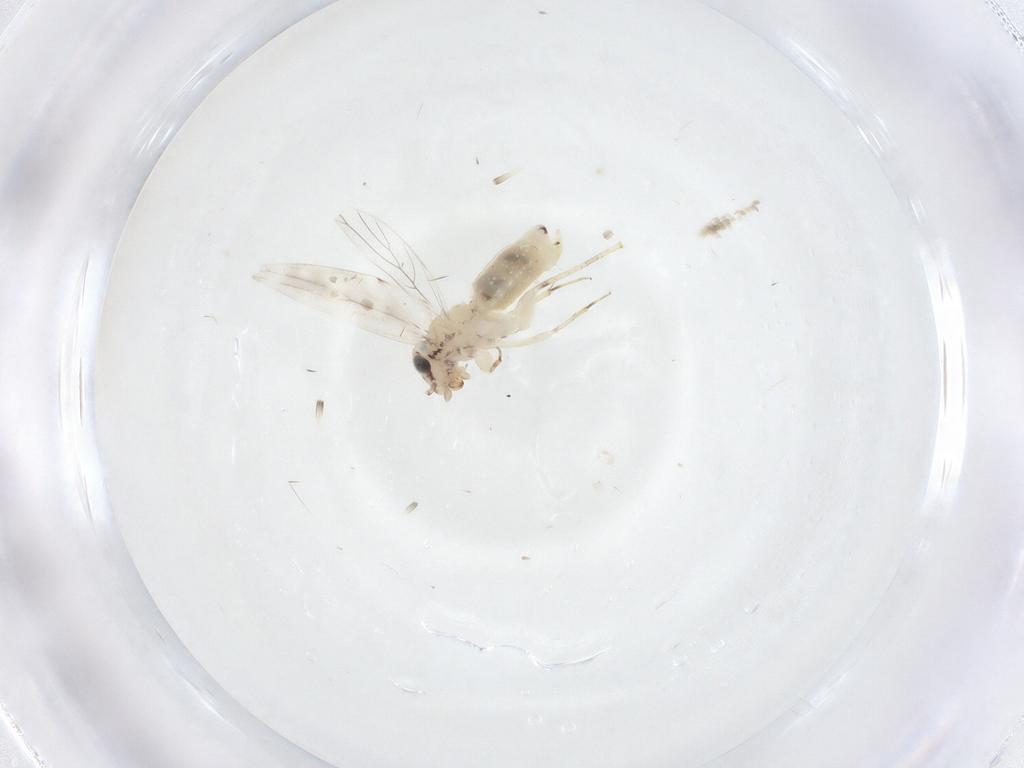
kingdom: Animalia
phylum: Arthropoda
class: Insecta
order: Psocodea
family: Lepidopsocidae
